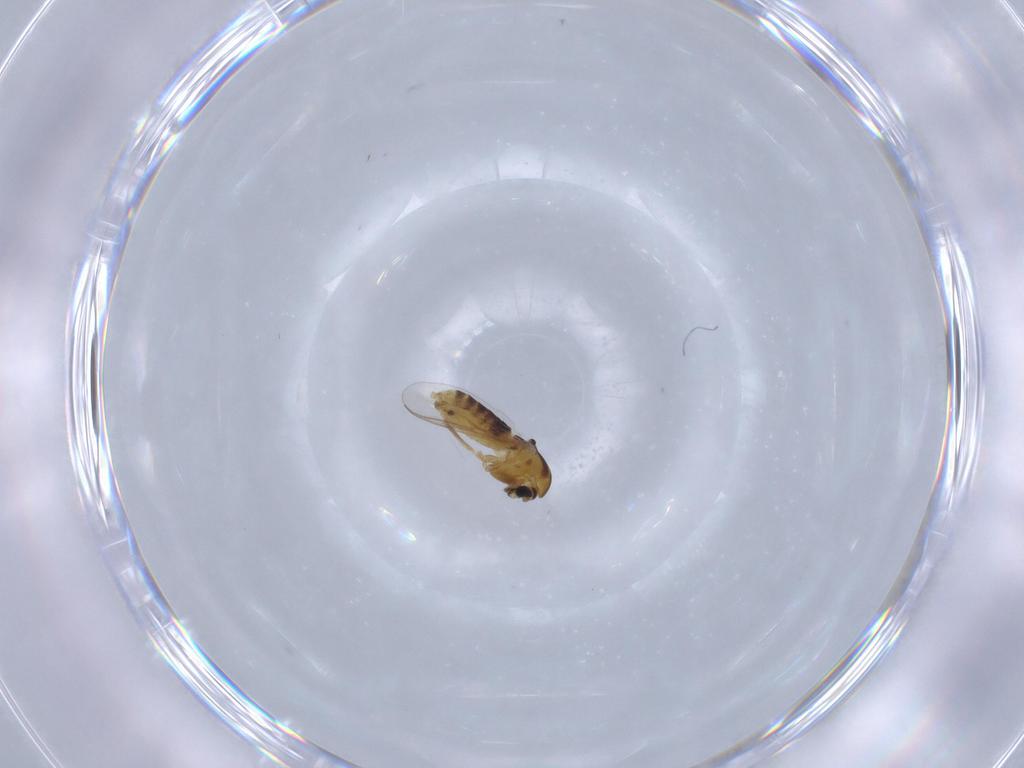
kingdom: Animalia
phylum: Arthropoda
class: Insecta
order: Diptera
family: Chironomidae
